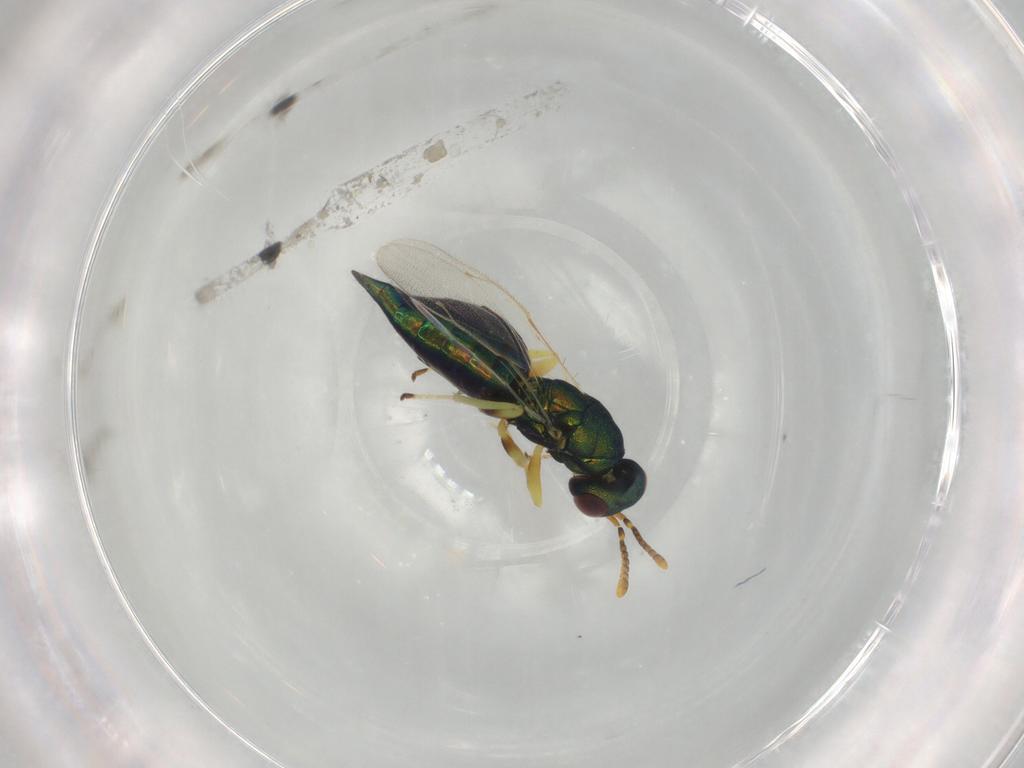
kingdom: Animalia
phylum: Arthropoda
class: Insecta
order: Hymenoptera
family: Pteromalidae
